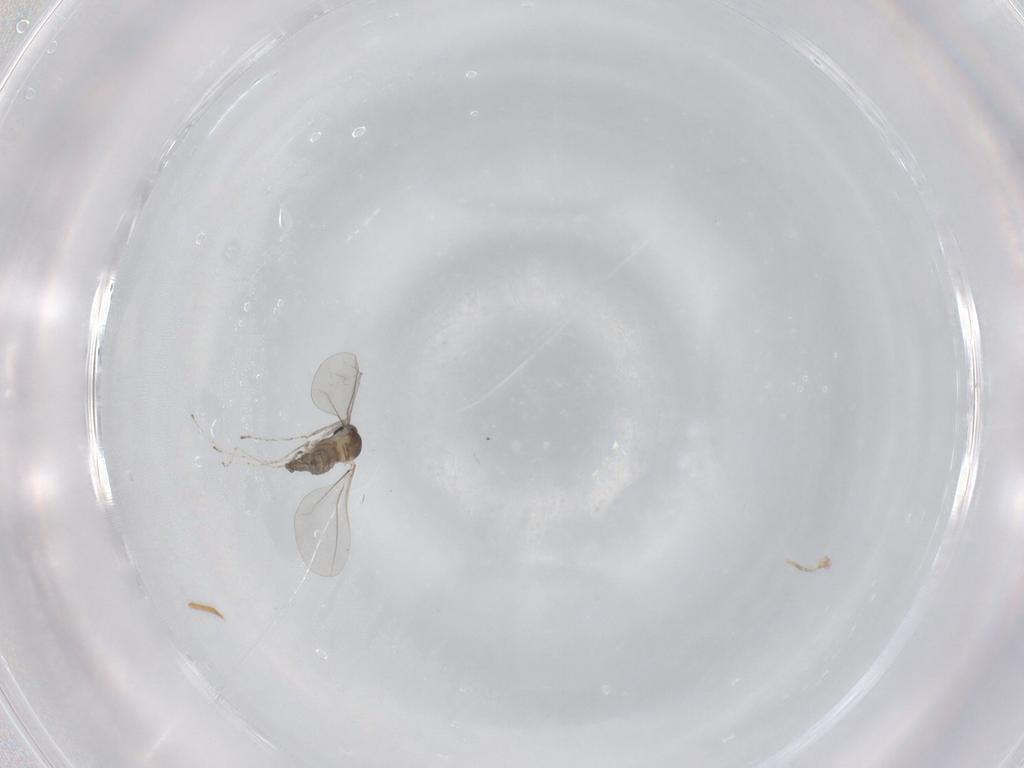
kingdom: Animalia
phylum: Arthropoda
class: Insecta
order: Diptera
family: Cecidomyiidae
